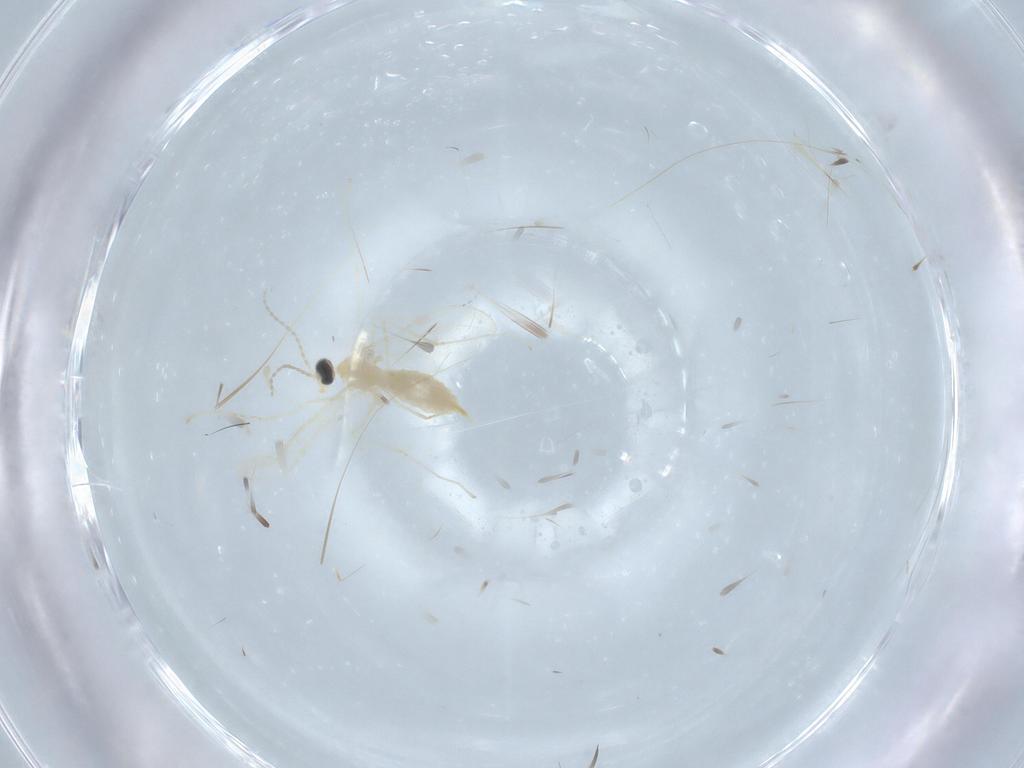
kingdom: Animalia
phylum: Arthropoda
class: Insecta
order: Diptera
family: Cecidomyiidae
